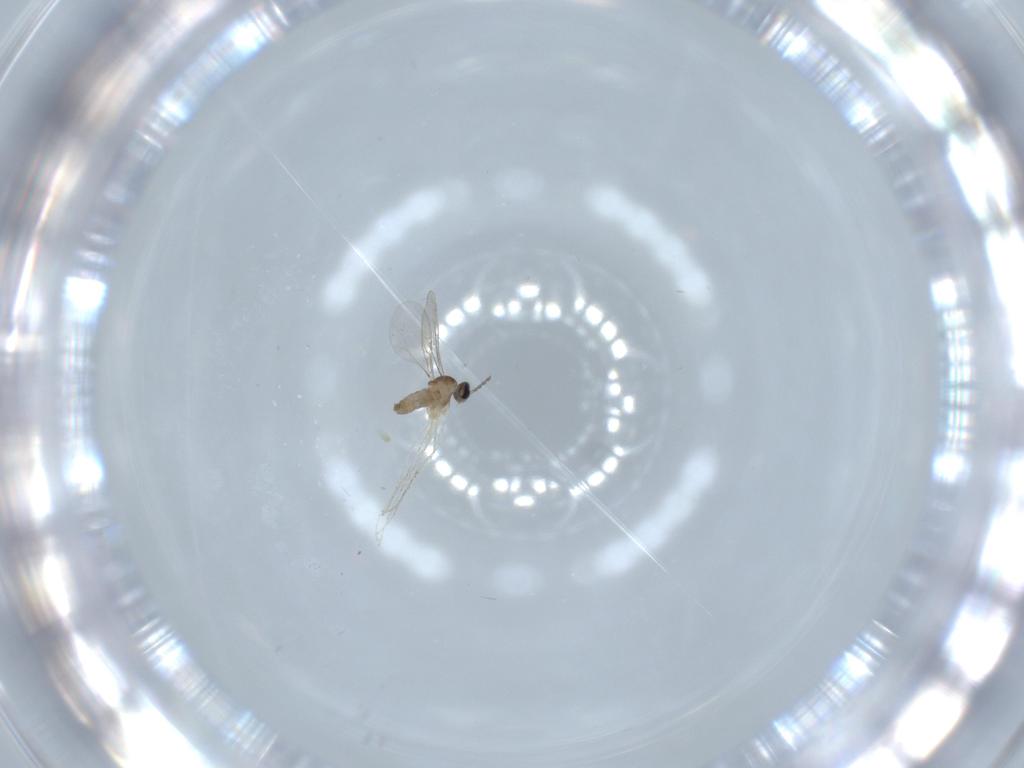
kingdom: Animalia
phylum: Arthropoda
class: Insecta
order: Diptera
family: Cecidomyiidae
